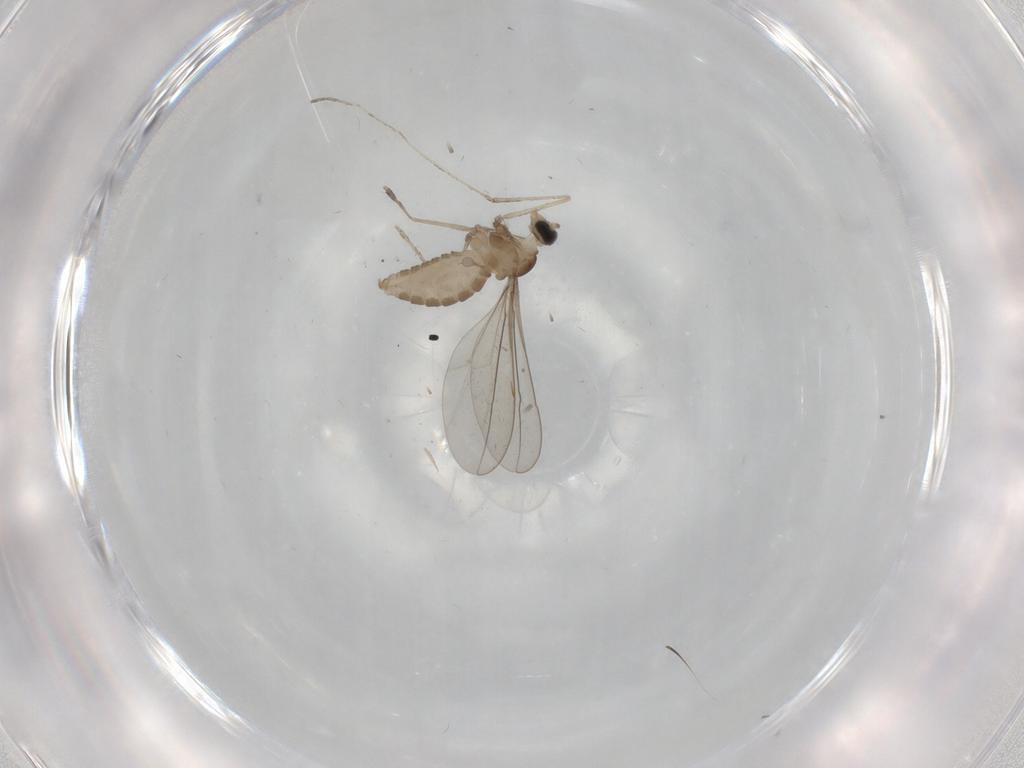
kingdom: Animalia
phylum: Arthropoda
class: Insecta
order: Diptera
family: Cecidomyiidae
